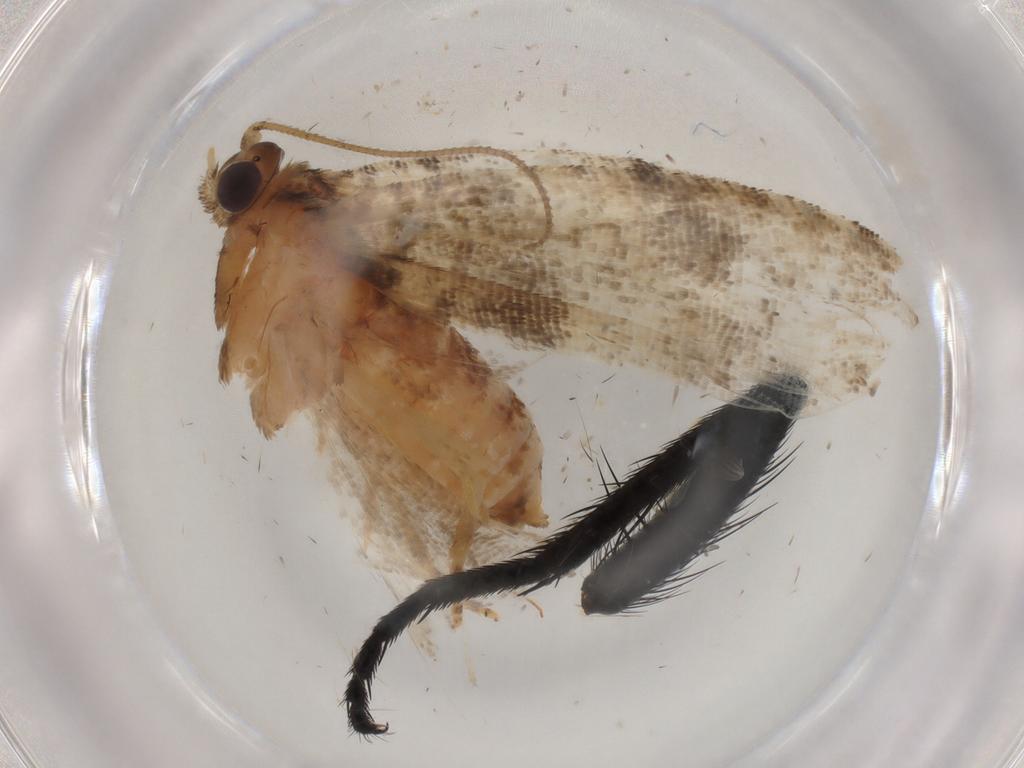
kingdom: Animalia
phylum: Arthropoda
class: Insecta
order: Lepidoptera
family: Tortricidae
